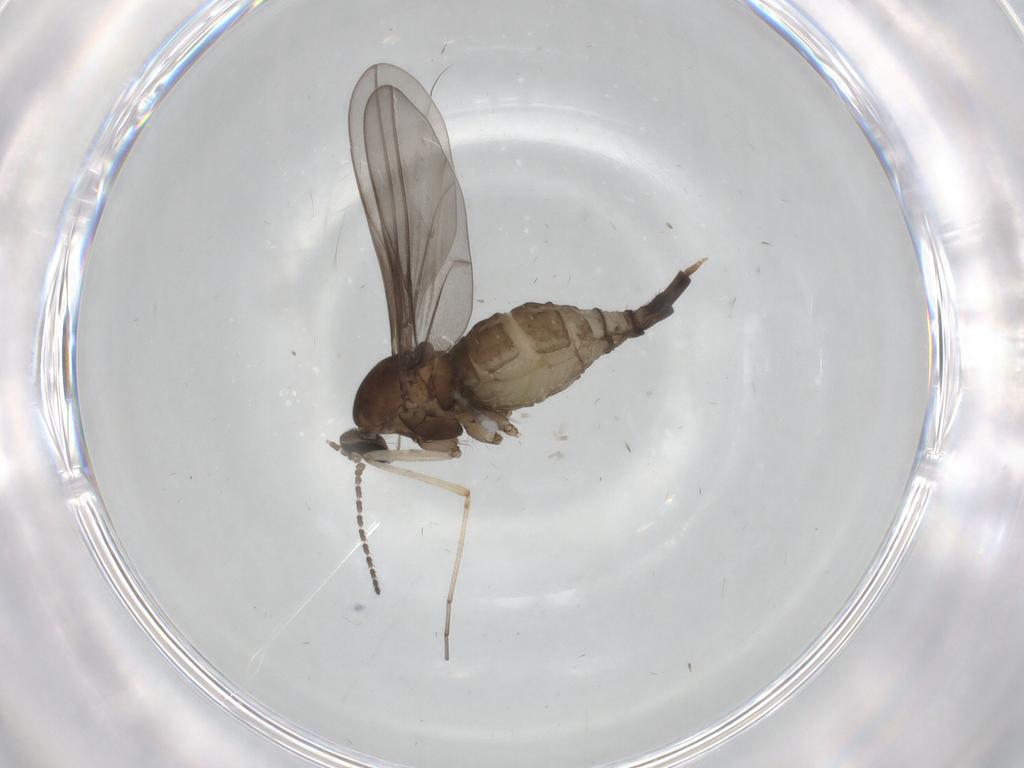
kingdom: Animalia
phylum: Arthropoda
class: Insecta
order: Diptera
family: Cecidomyiidae
